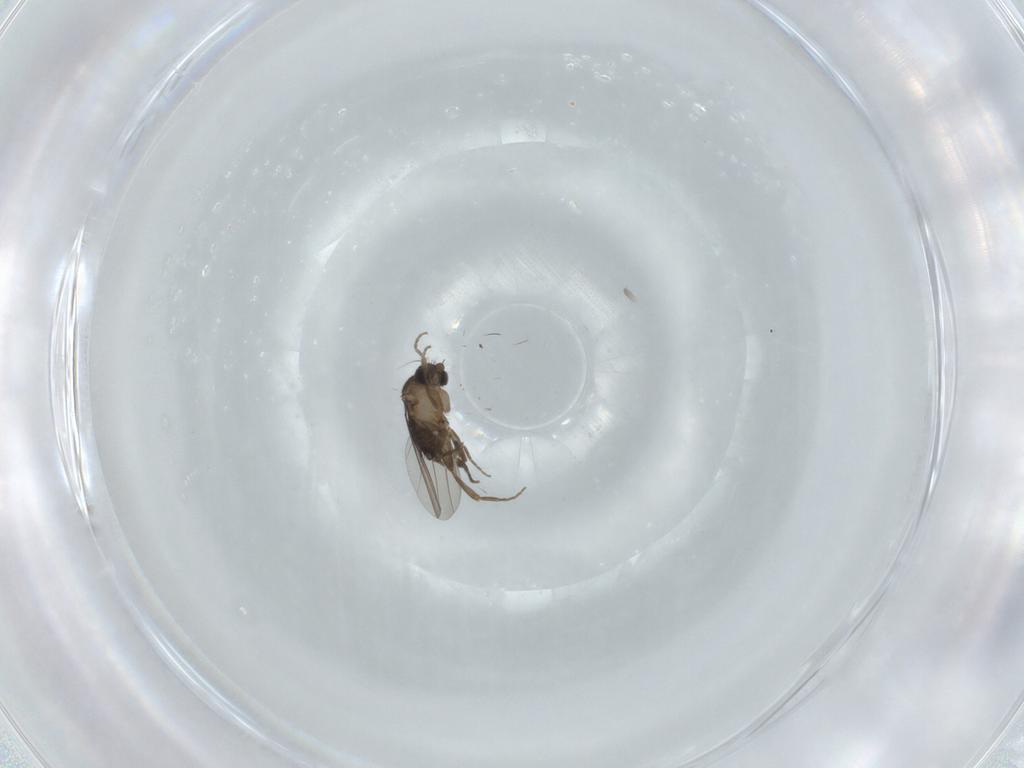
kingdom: Animalia
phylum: Arthropoda
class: Insecta
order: Diptera
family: Phoridae
